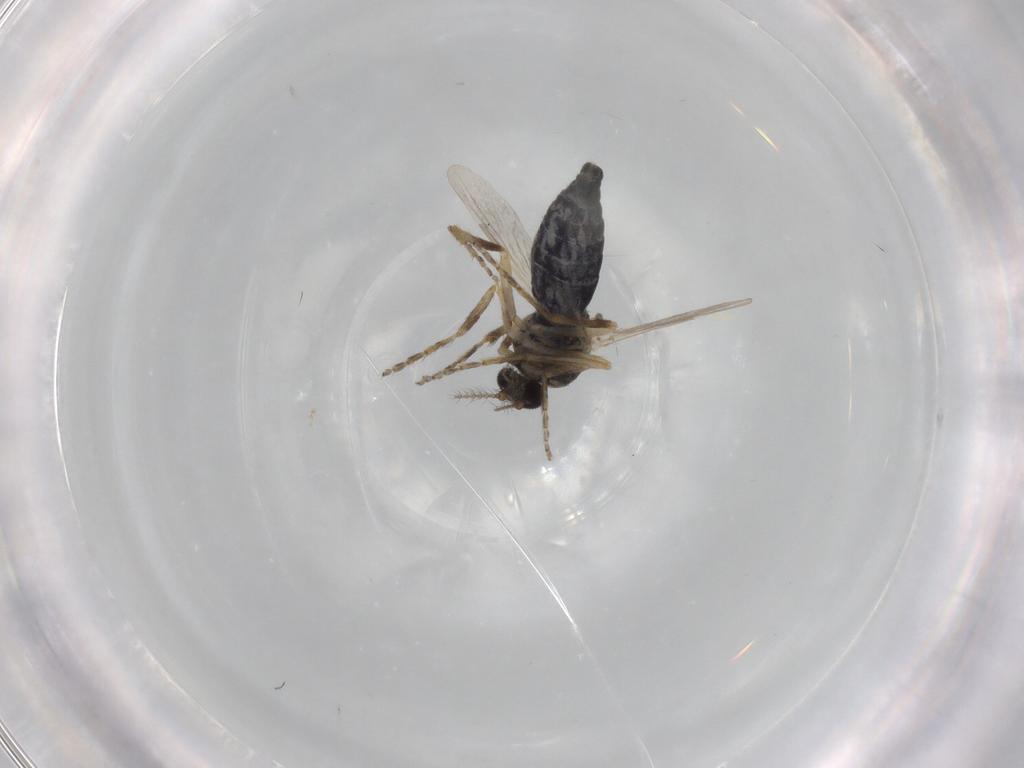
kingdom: Animalia
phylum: Arthropoda
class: Insecta
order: Diptera
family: Ceratopogonidae
